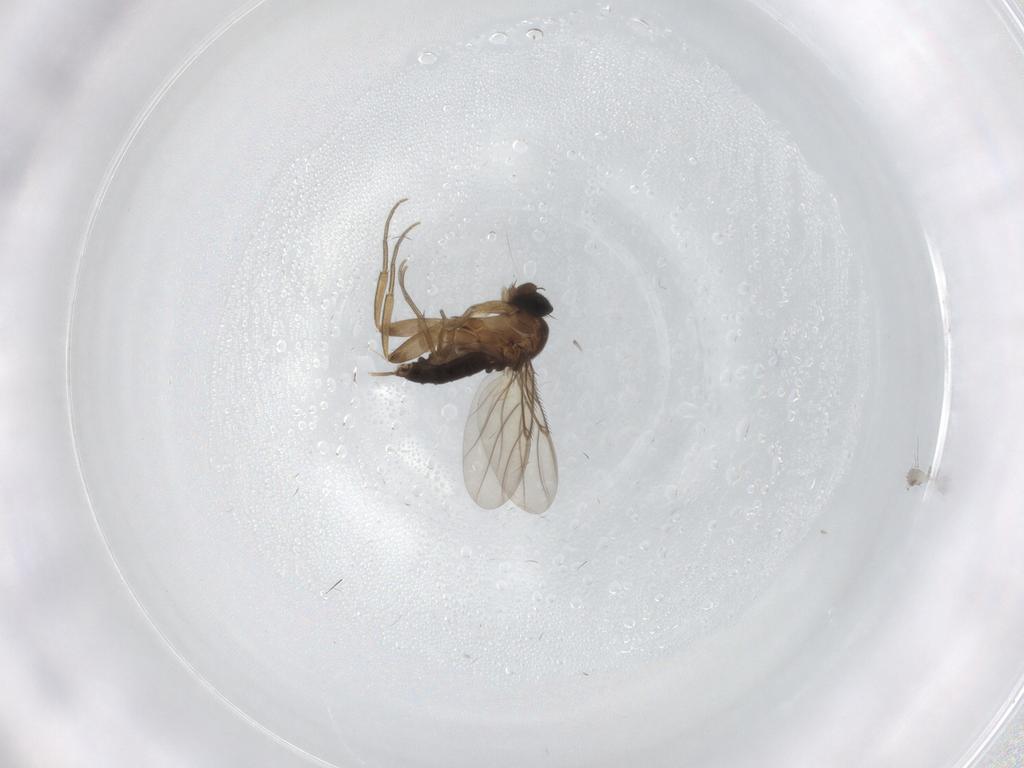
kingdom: Animalia
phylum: Arthropoda
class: Insecta
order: Diptera
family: Phoridae
